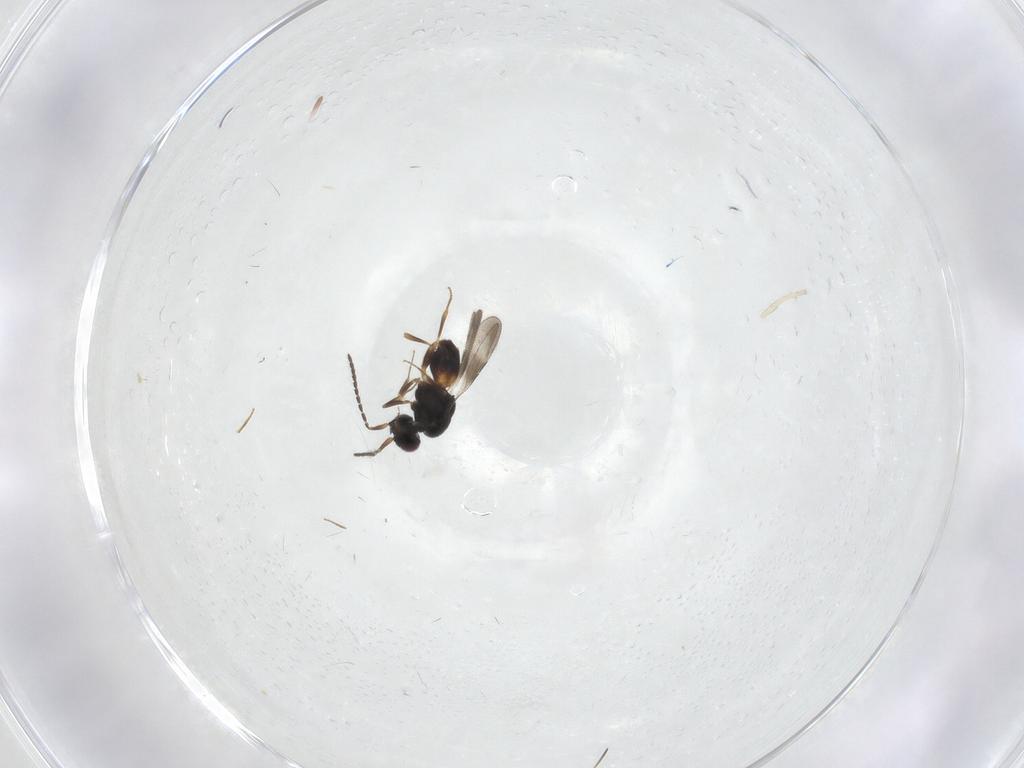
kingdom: Animalia
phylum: Arthropoda
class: Insecta
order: Hymenoptera
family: Ceraphronidae
